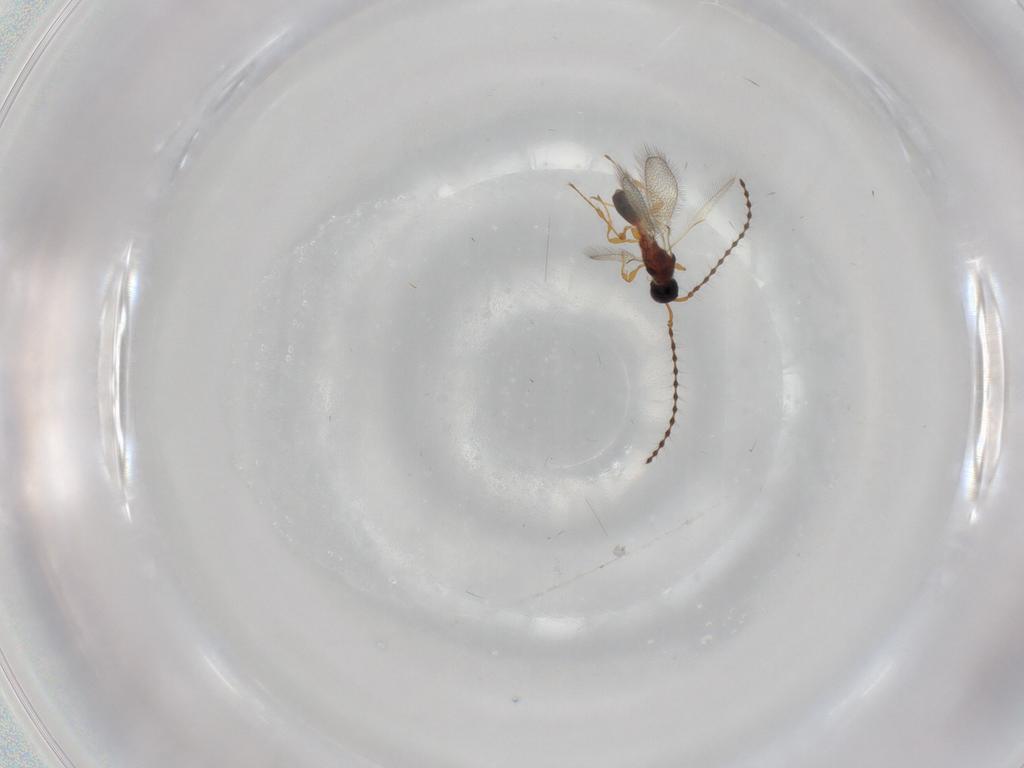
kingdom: Animalia
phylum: Arthropoda
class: Insecta
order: Hymenoptera
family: Diapriidae
